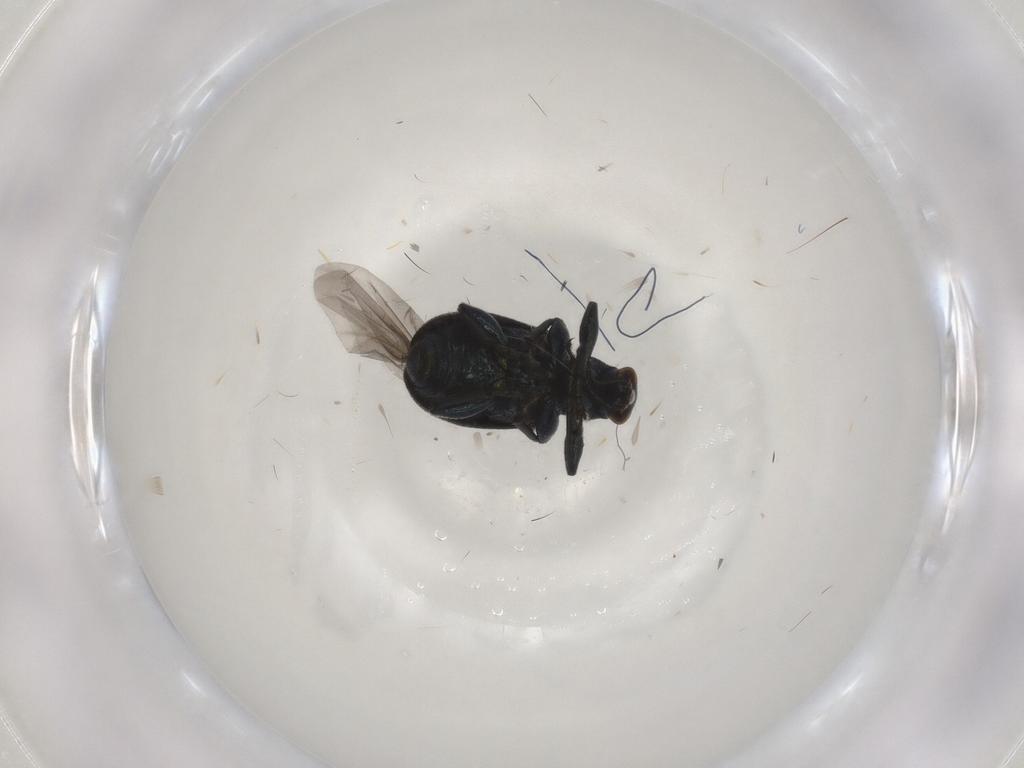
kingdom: Animalia
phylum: Arthropoda
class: Insecta
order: Coleoptera
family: Attelabidae
